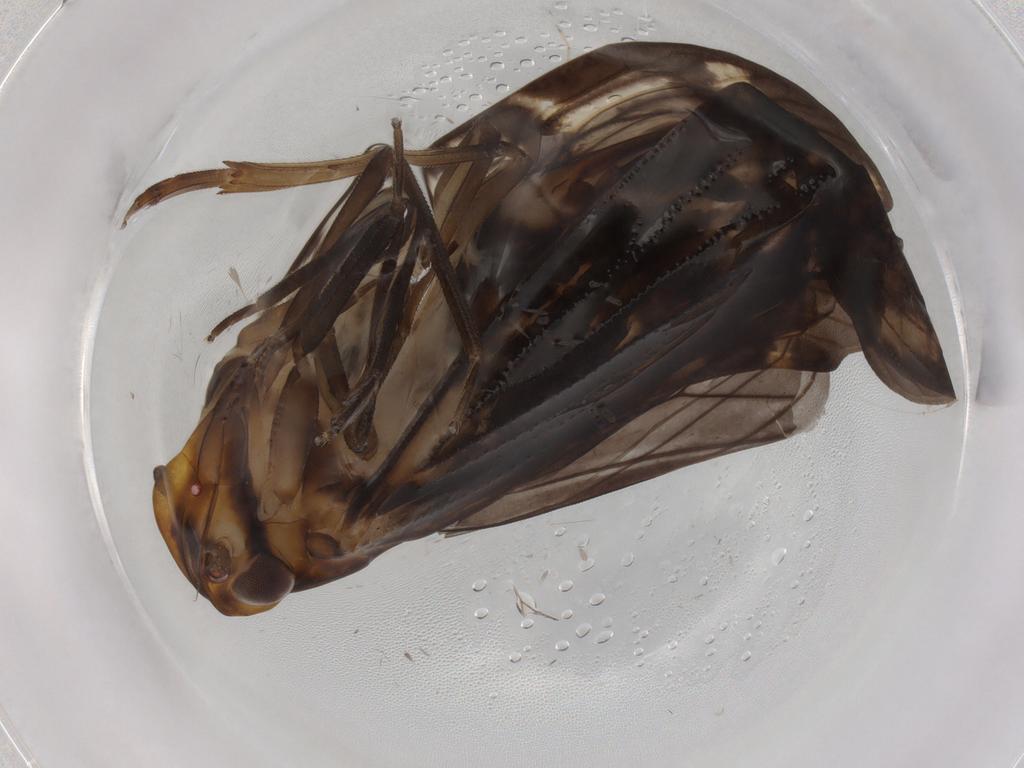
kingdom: Animalia
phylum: Arthropoda
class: Insecta
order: Hemiptera
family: Cixiidae
